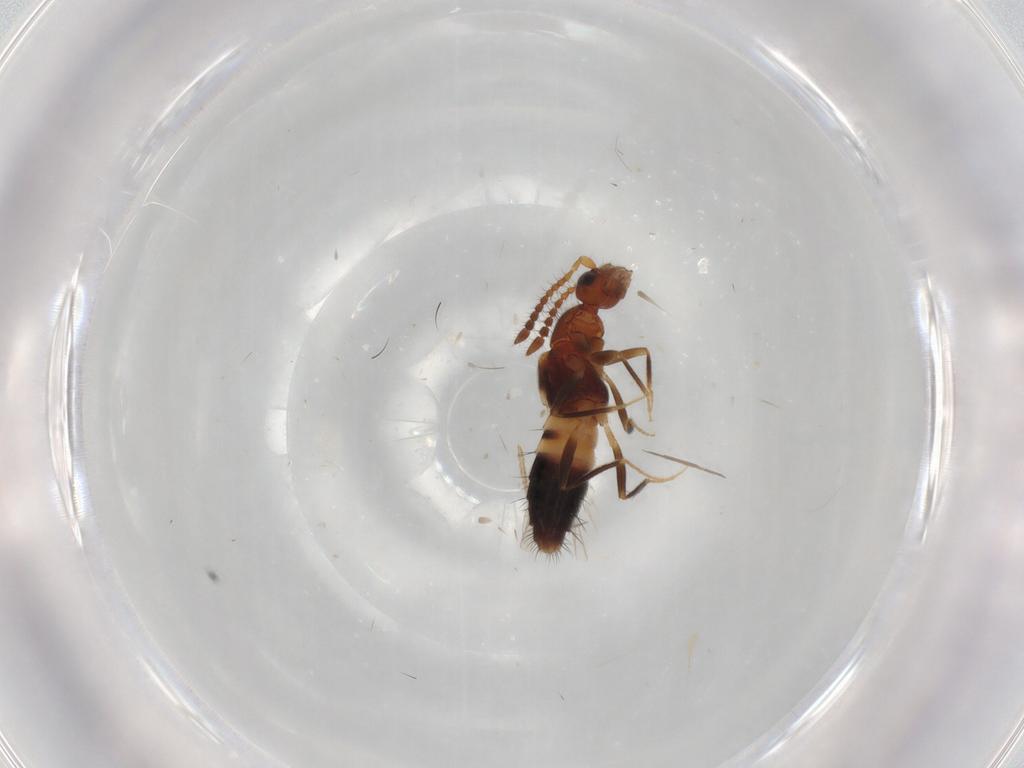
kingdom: Animalia
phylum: Arthropoda
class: Insecta
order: Coleoptera
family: Staphylinidae
